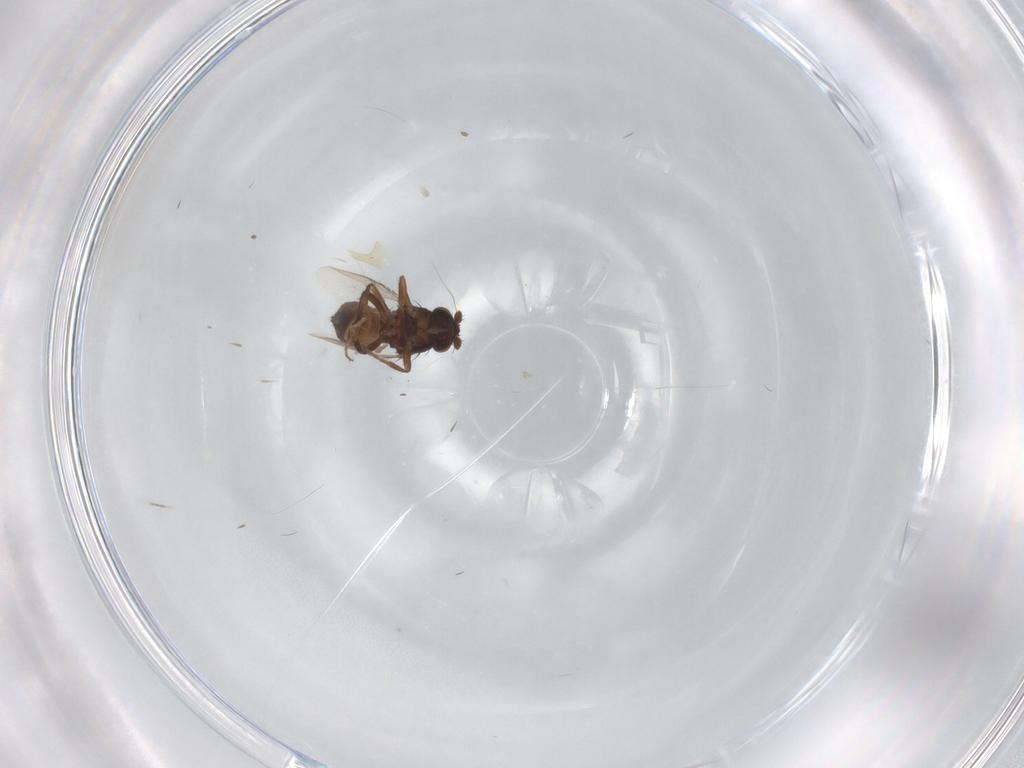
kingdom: Animalia
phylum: Arthropoda
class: Insecta
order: Diptera
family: Sphaeroceridae
